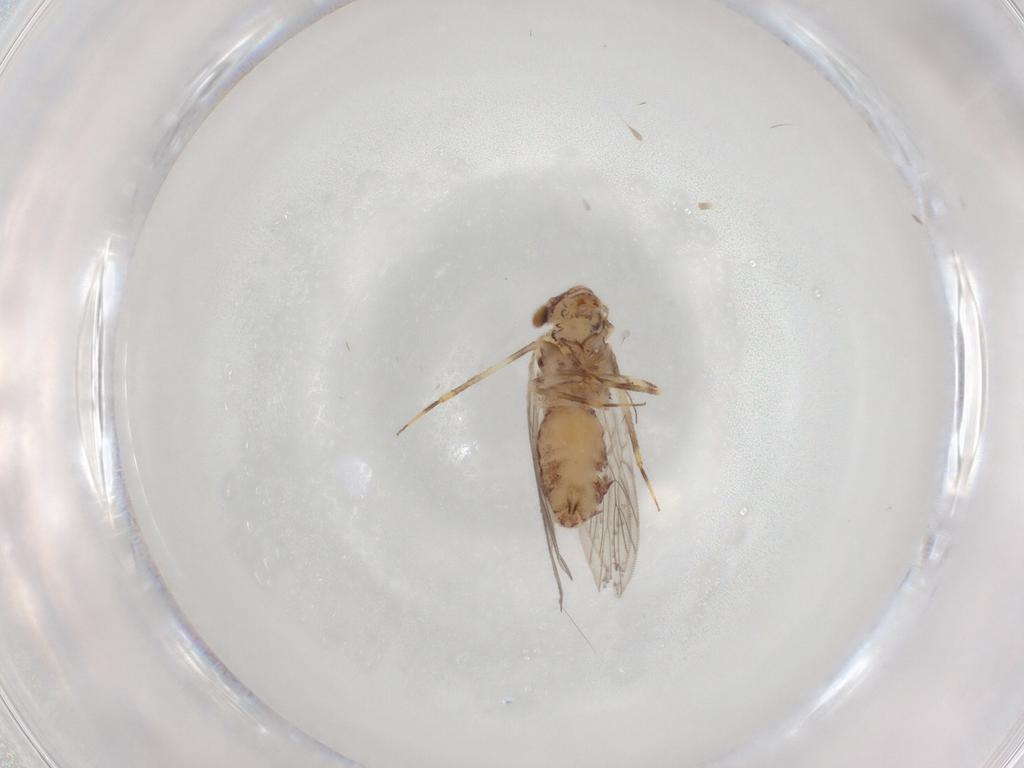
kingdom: Animalia
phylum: Arthropoda
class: Insecta
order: Psocodea
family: Lepidopsocidae
